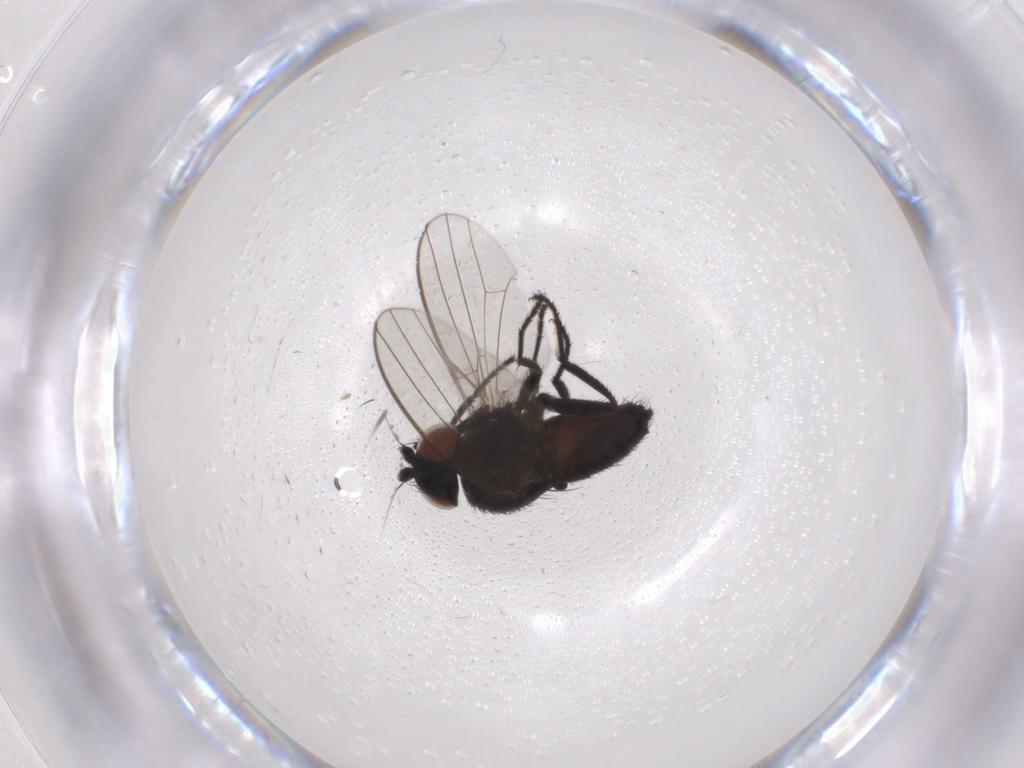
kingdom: Animalia
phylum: Arthropoda
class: Insecta
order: Diptera
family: Milichiidae
